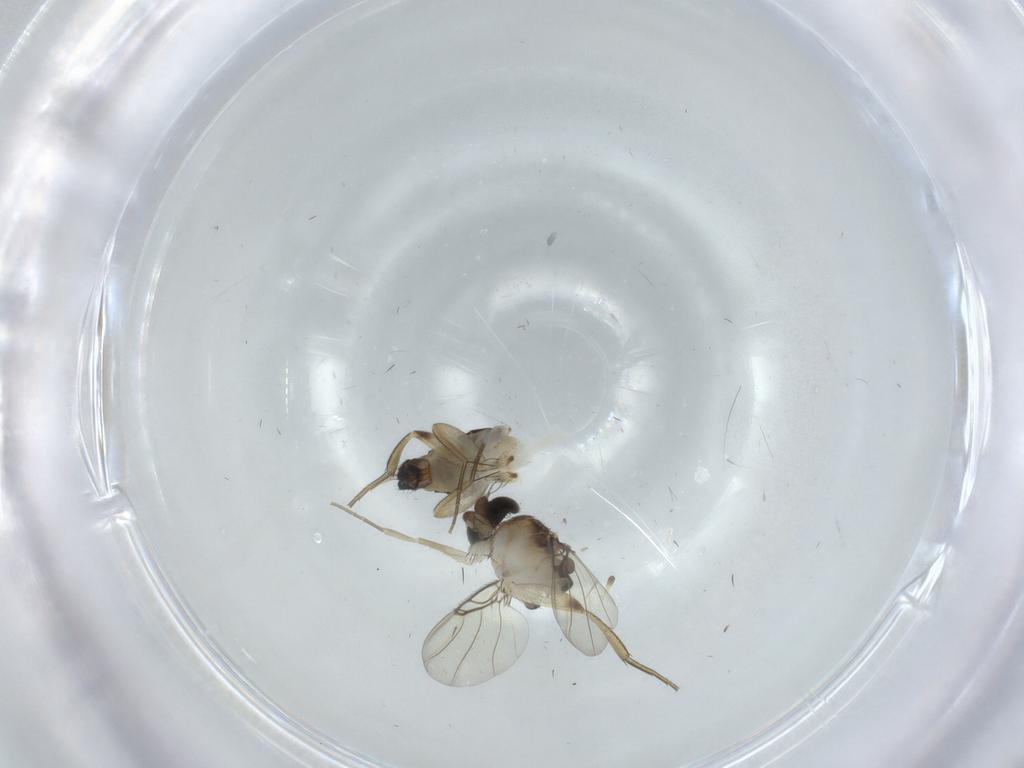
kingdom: Animalia
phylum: Arthropoda
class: Insecta
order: Diptera
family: Phoridae
